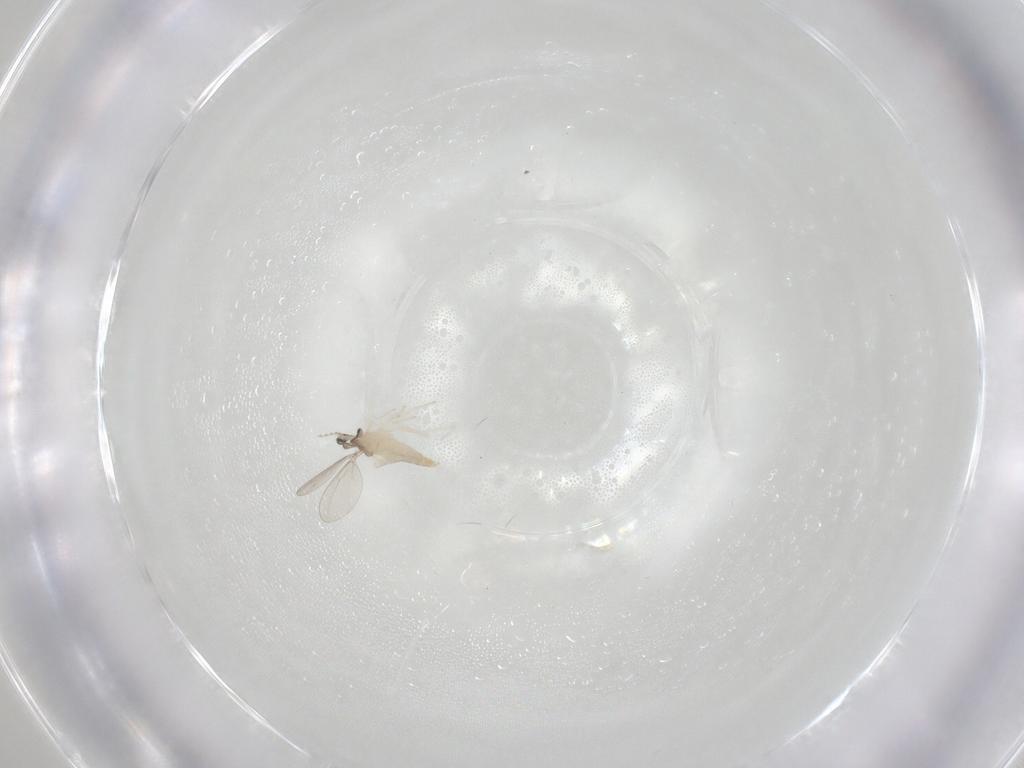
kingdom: Animalia
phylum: Arthropoda
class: Insecta
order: Diptera
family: Cecidomyiidae
